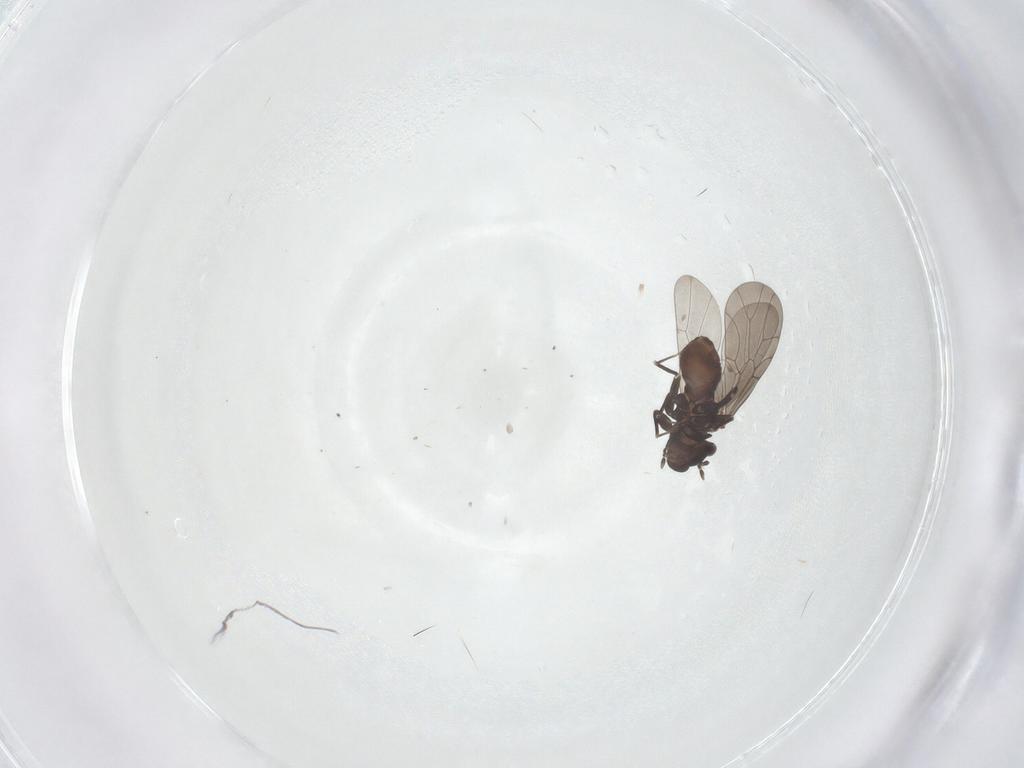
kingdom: Animalia
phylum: Arthropoda
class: Insecta
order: Psocodea
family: Lepidopsocidae
